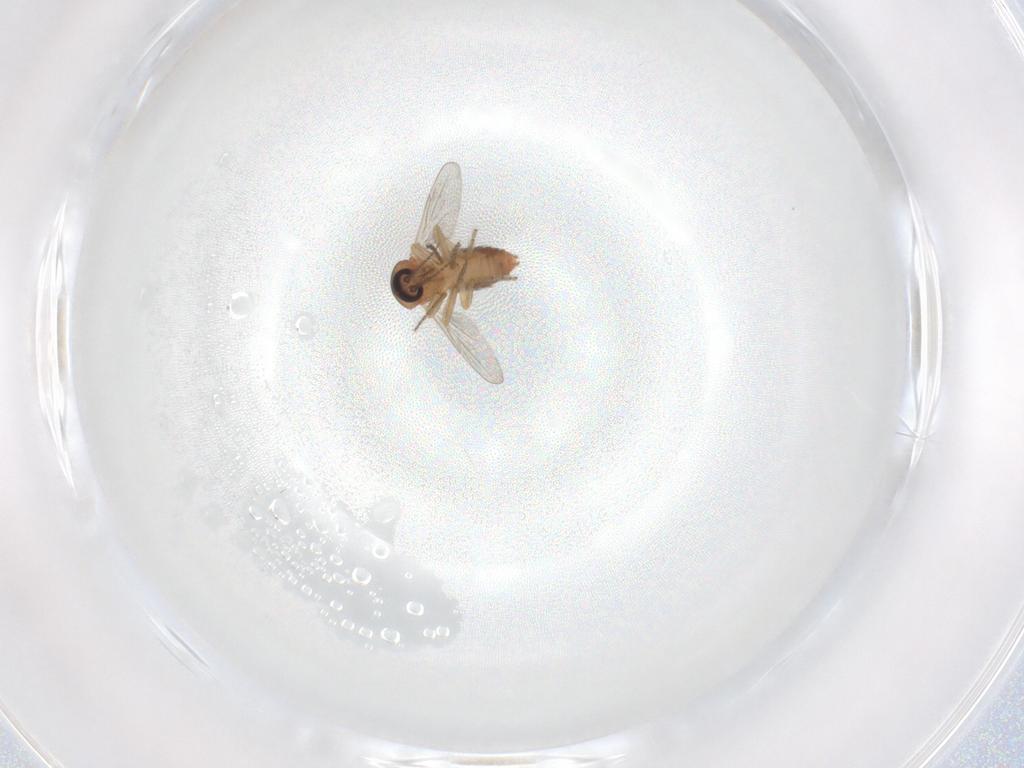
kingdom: Animalia
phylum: Arthropoda
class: Insecta
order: Diptera
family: Ceratopogonidae
